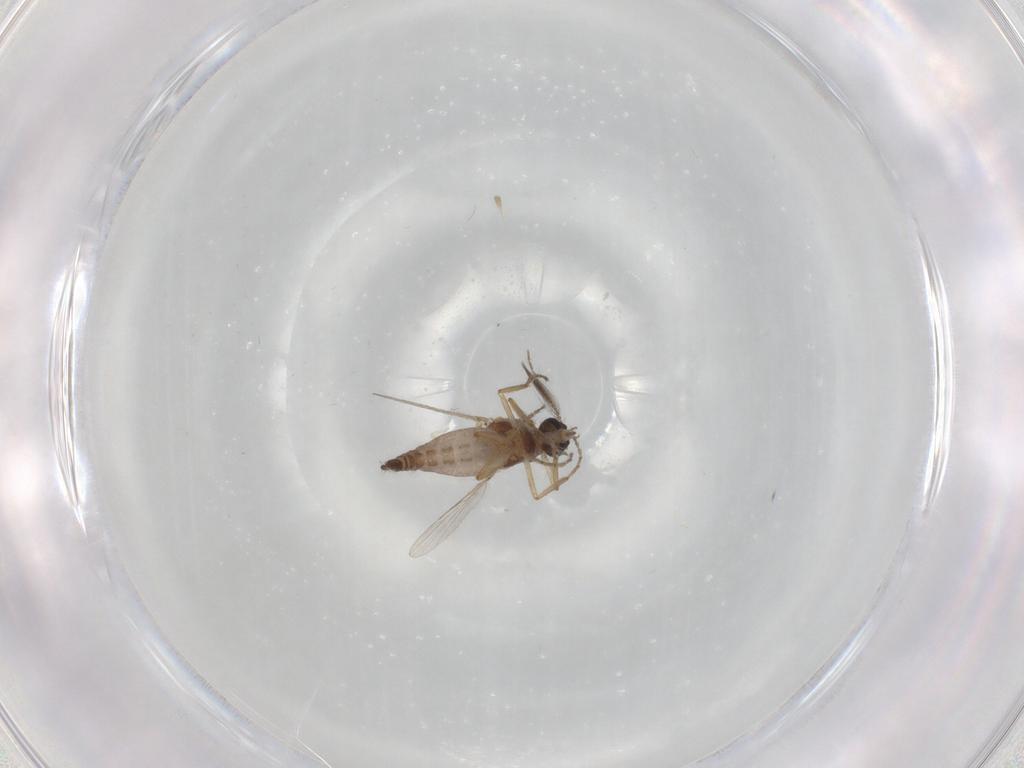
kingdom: Animalia
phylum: Arthropoda
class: Insecta
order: Diptera
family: Ceratopogonidae
